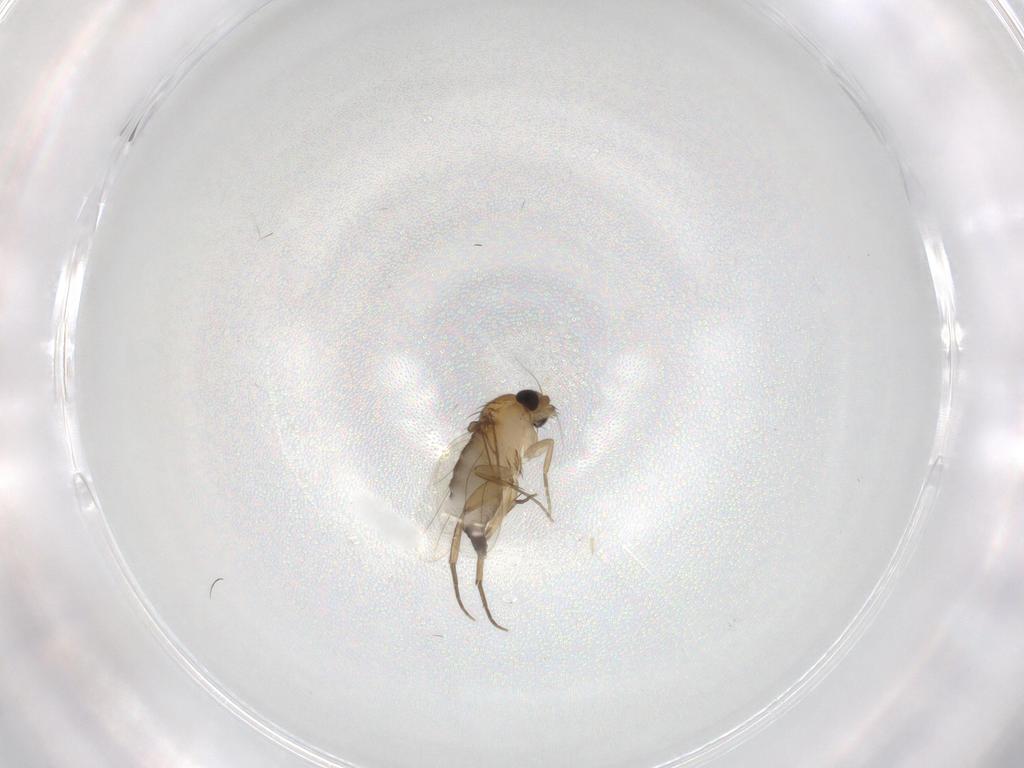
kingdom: Animalia
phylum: Arthropoda
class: Insecta
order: Diptera
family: Phoridae
